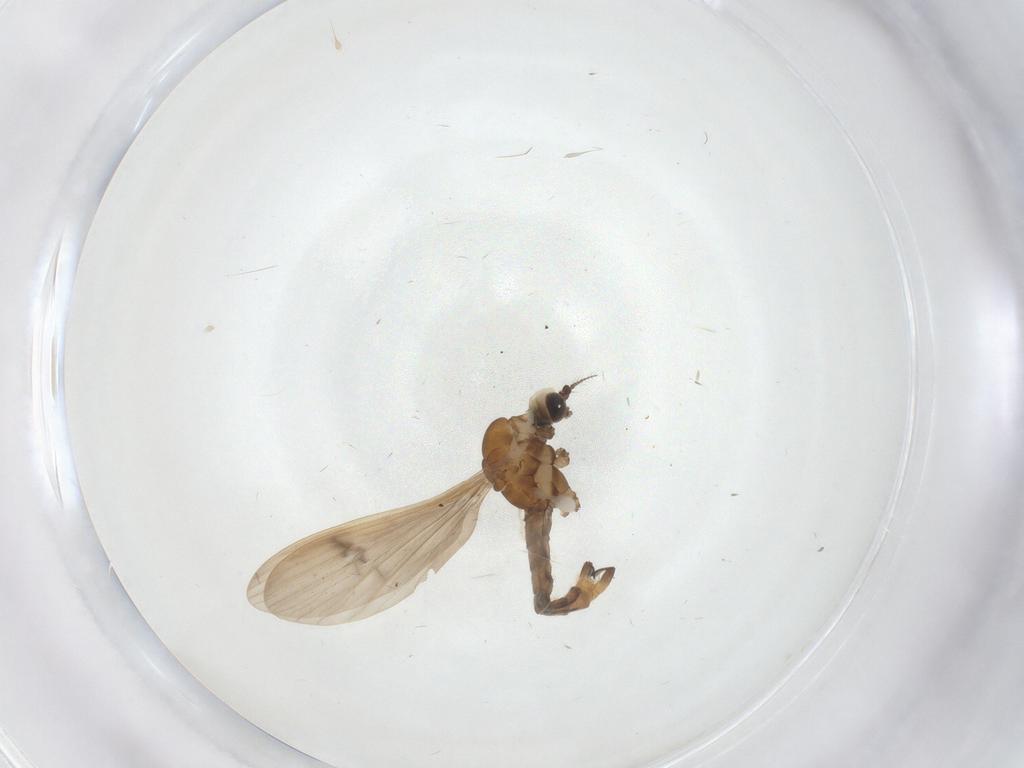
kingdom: Animalia
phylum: Arthropoda
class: Insecta
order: Diptera
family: Limoniidae
